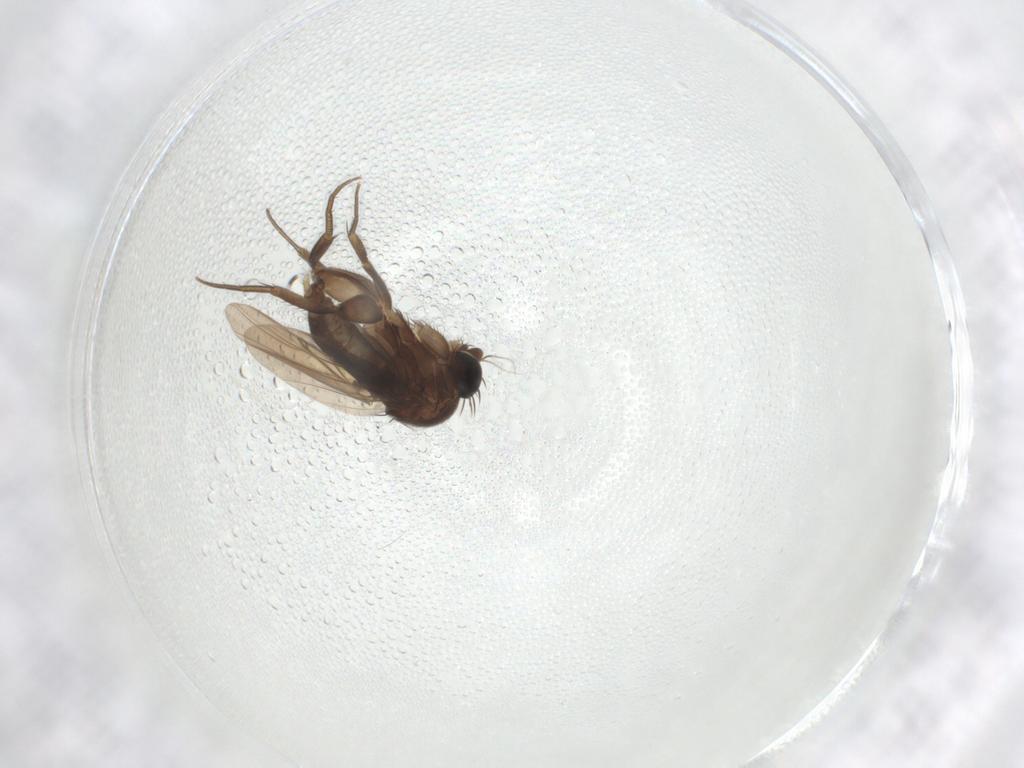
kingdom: Animalia
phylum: Arthropoda
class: Insecta
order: Diptera
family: Phoridae
